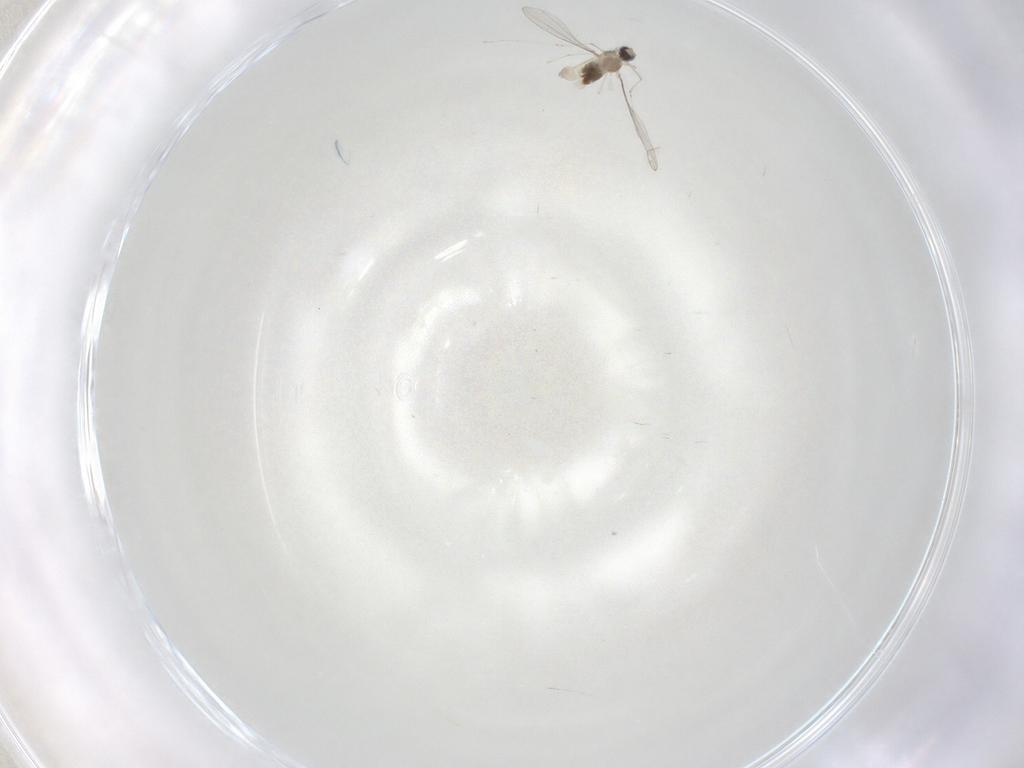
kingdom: Animalia
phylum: Arthropoda
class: Insecta
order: Diptera
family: Cecidomyiidae
